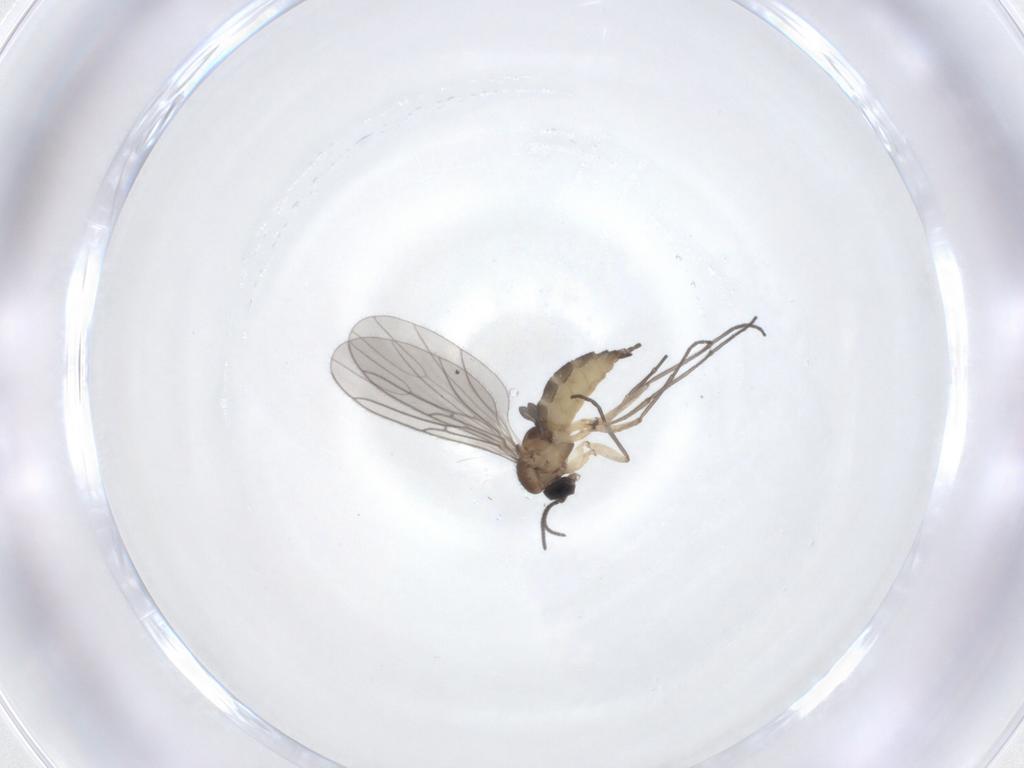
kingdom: Animalia
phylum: Arthropoda
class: Insecta
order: Diptera
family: Sciaridae
